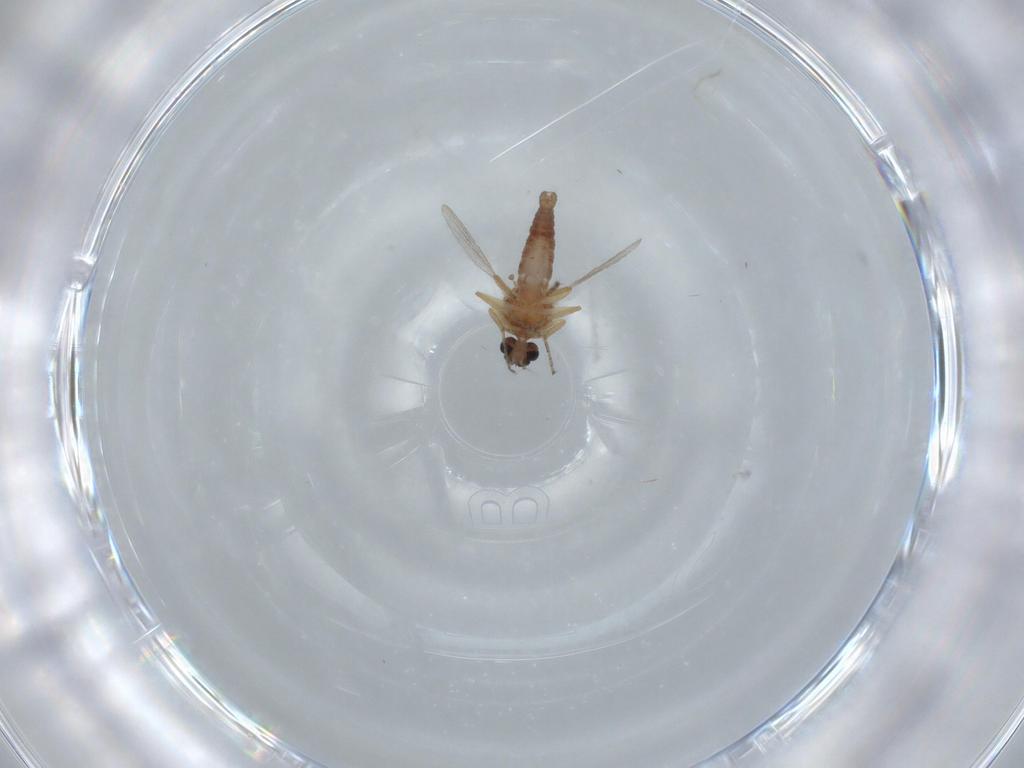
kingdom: Animalia
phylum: Arthropoda
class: Insecta
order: Diptera
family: Ceratopogonidae
